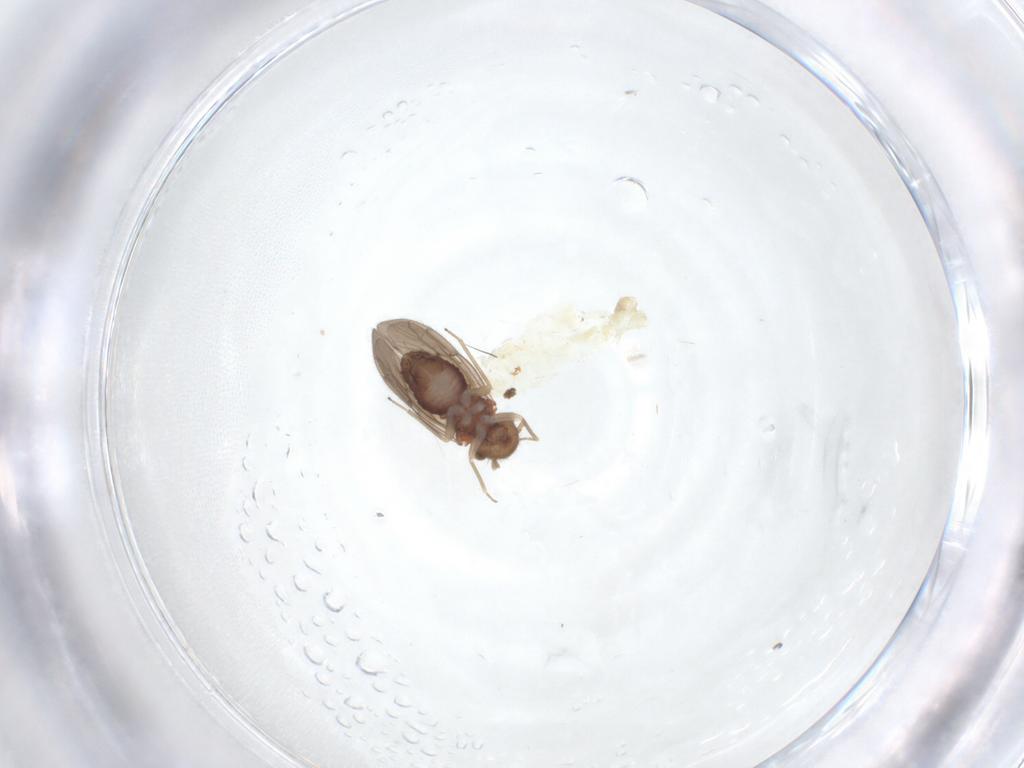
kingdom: Animalia
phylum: Arthropoda
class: Insecta
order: Psocodea
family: Ectopsocidae
